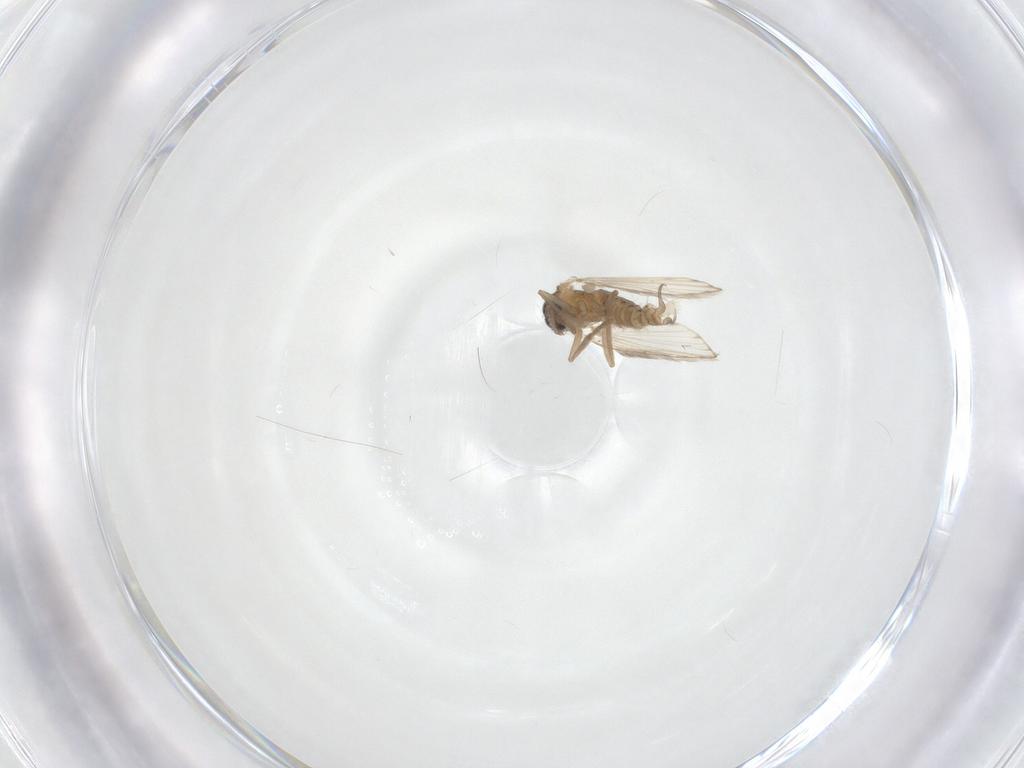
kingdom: Animalia
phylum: Arthropoda
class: Insecta
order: Diptera
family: Psychodidae
